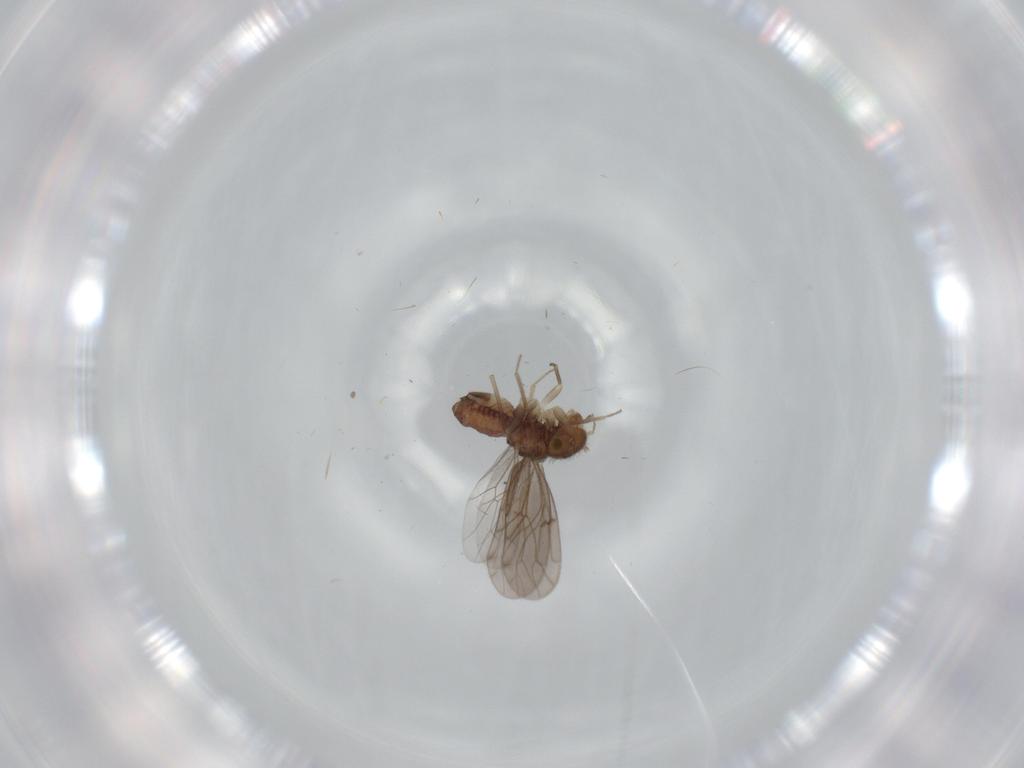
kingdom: Animalia
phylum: Arthropoda
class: Insecta
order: Psocodea
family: Ectopsocidae
